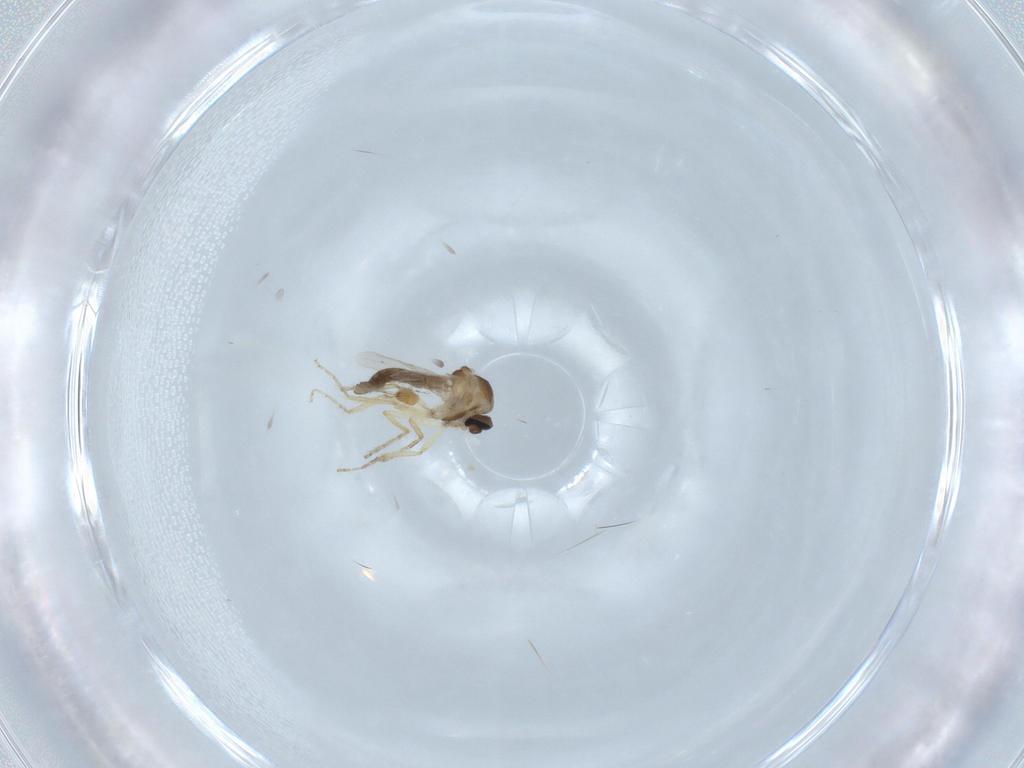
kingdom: Animalia
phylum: Arthropoda
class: Insecta
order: Diptera
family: Ceratopogonidae
